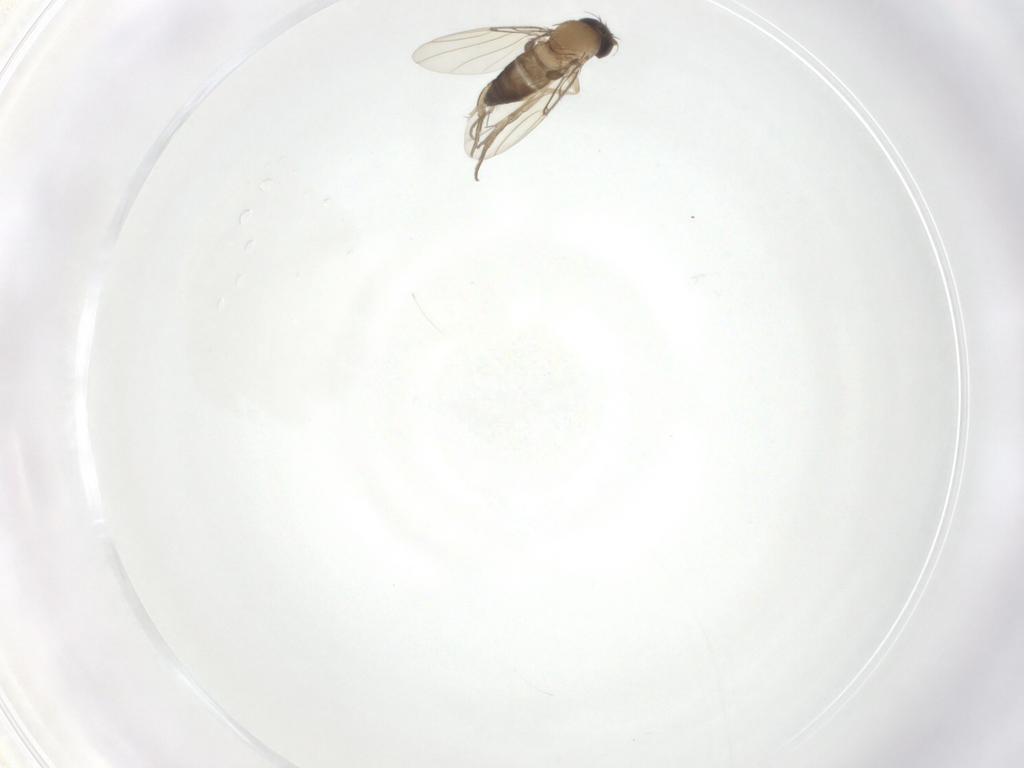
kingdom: Animalia
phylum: Arthropoda
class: Insecta
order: Diptera
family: Phoridae
